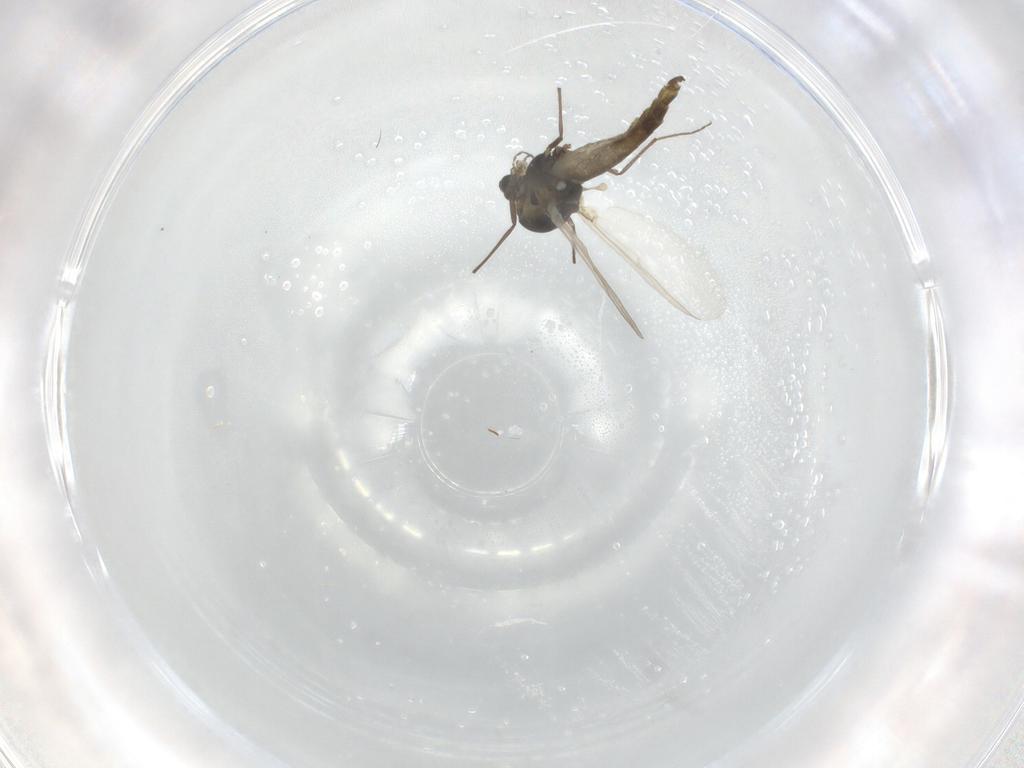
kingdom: Animalia
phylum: Arthropoda
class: Insecta
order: Diptera
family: Chironomidae
